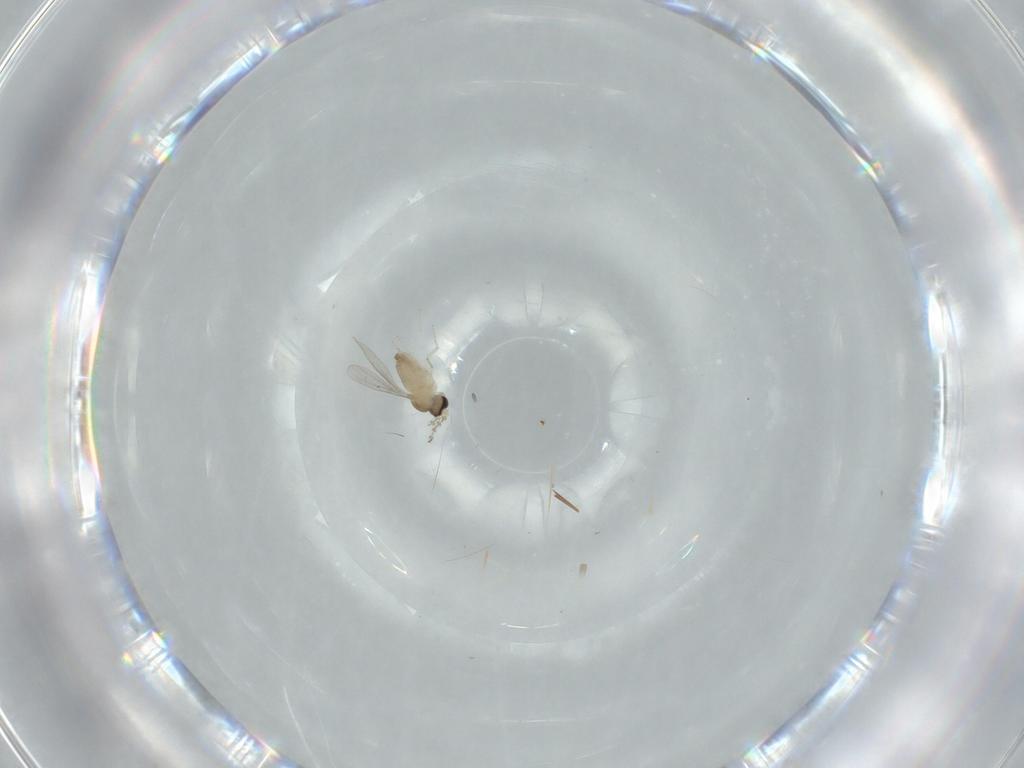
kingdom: Animalia
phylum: Arthropoda
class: Insecta
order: Diptera
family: Cecidomyiidae
